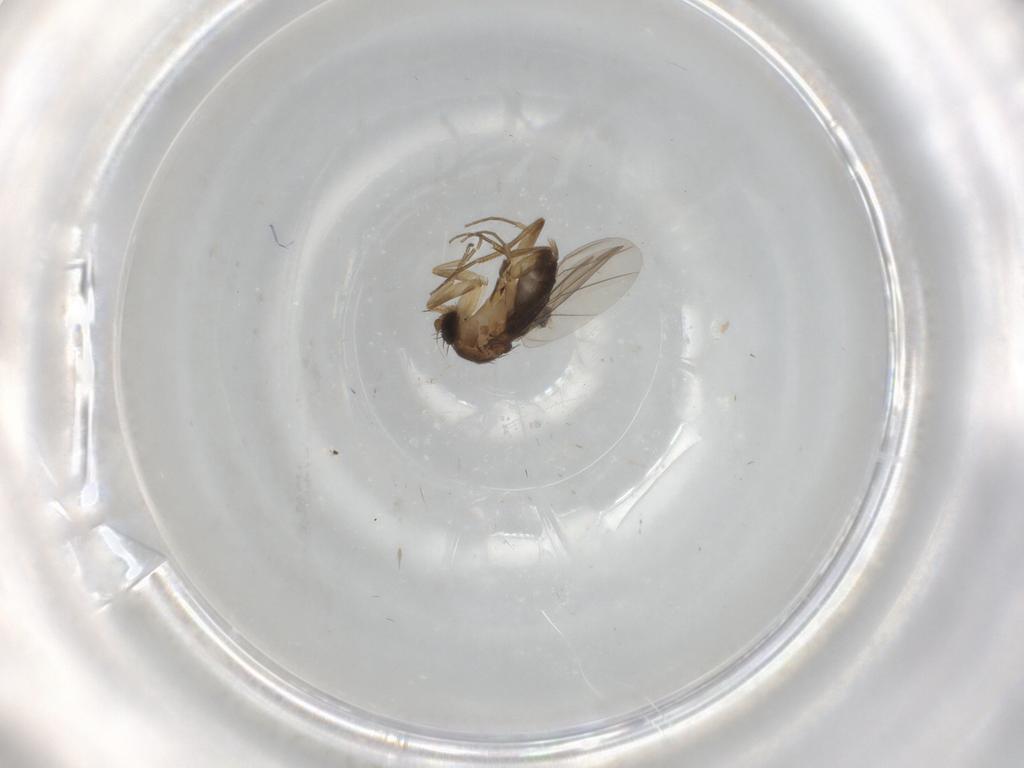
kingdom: Animalia
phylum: Arthropoda
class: Insecta
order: Diptera
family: Phoridae
